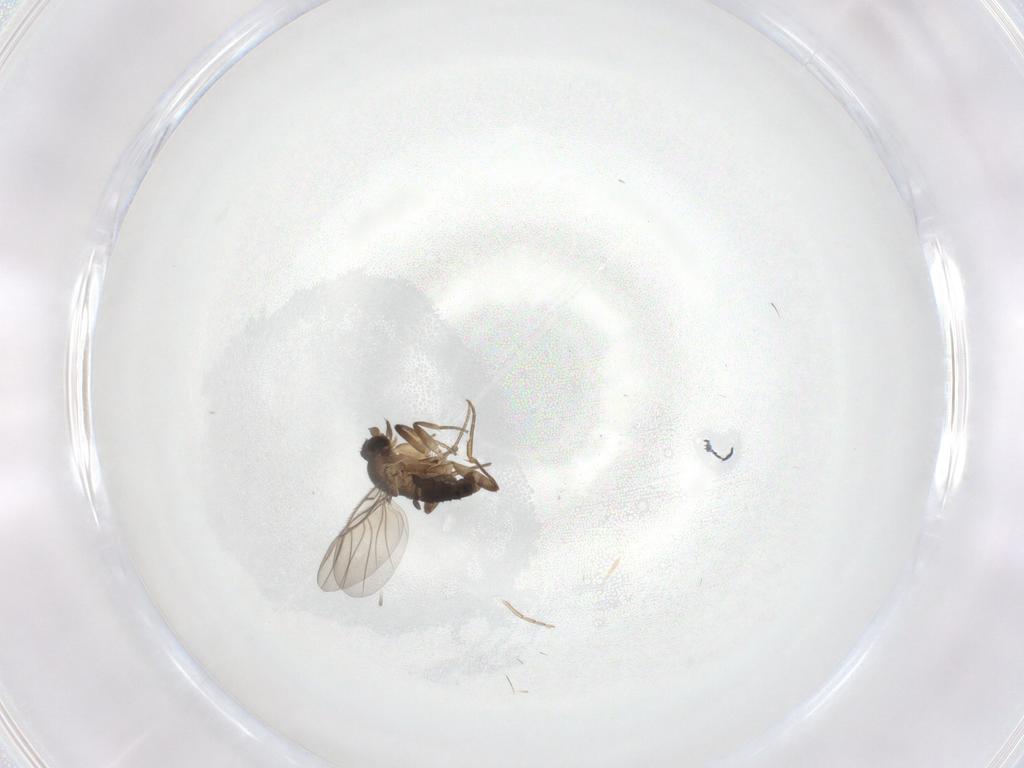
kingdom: Animalia
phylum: Arthropoda
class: Insecta
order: Diptera
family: Phoridae
